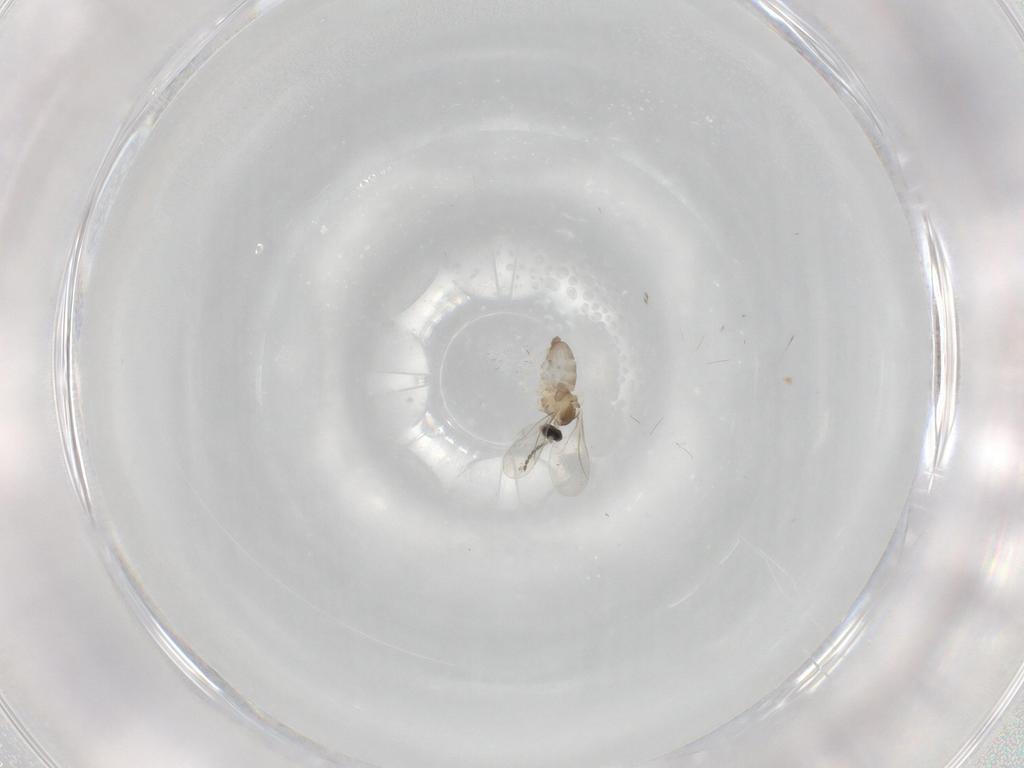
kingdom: Animalia
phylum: Arthropoda
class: Insecta
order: Diptera
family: Cecidomyiidae
